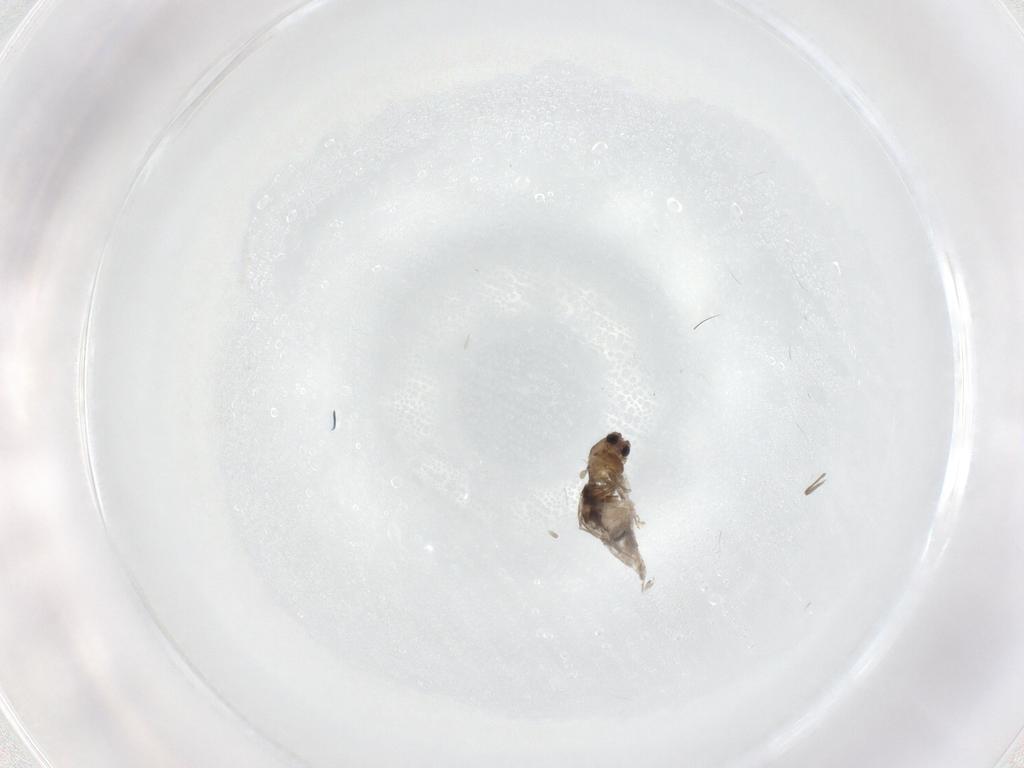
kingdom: Animalia
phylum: Arthropoda
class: Insecta
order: Diptera
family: Chironomidae
